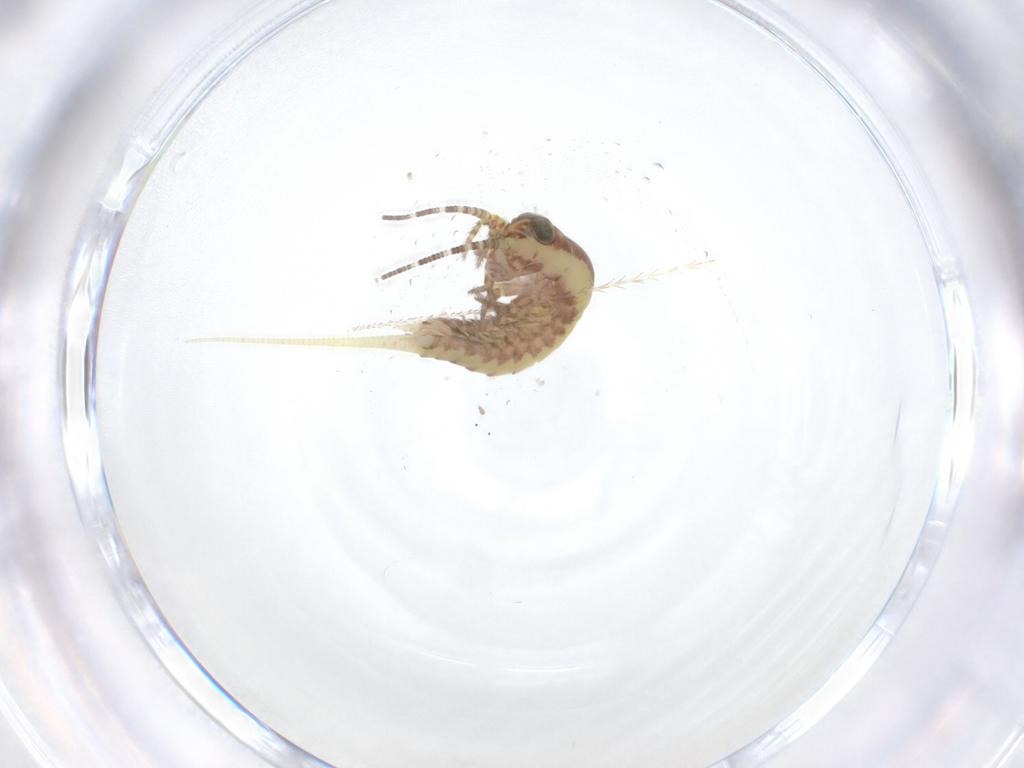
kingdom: Animalia
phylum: Arthropoda
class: Insecta
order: Archaeognatha
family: Meinertellidae
